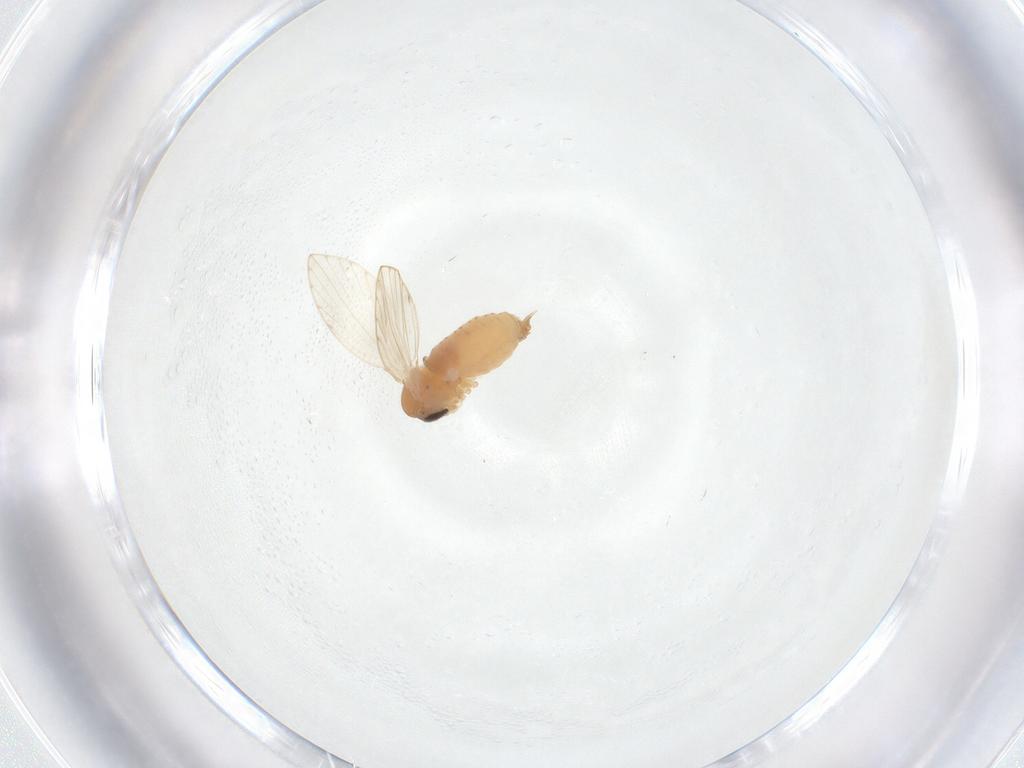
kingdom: Animalia
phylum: Arthropoda
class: Insecta
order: Diptera
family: Psychodidae
